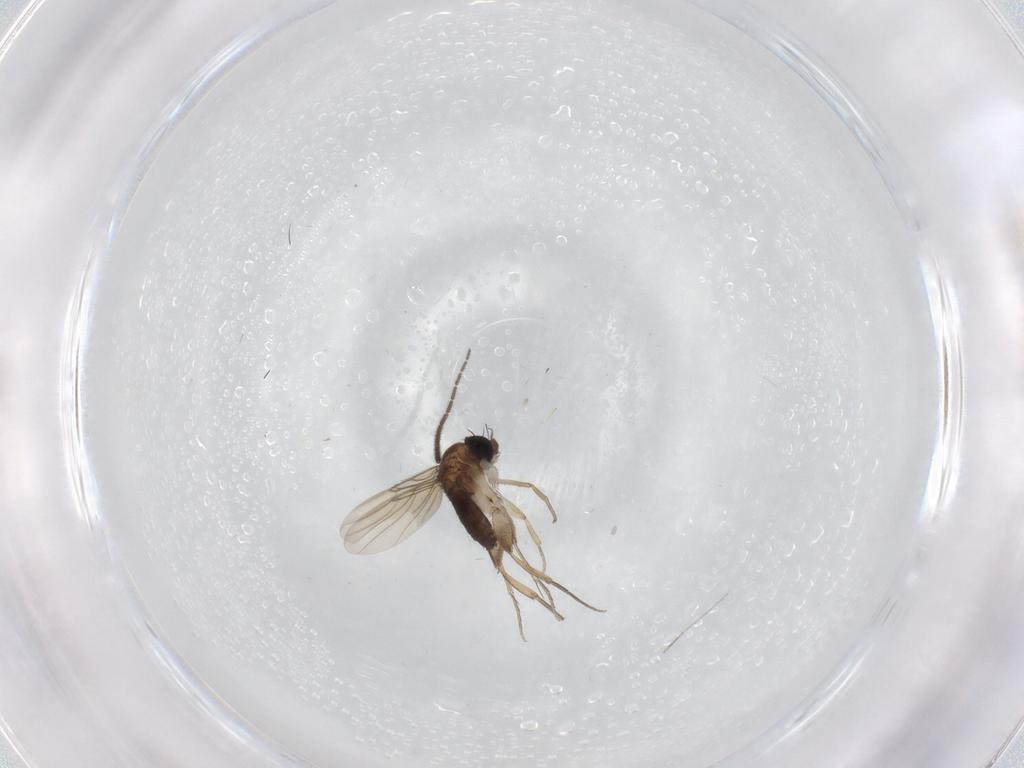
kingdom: Animalia
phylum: Arthropoda
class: Insecta
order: Diptera
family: Phoridae
